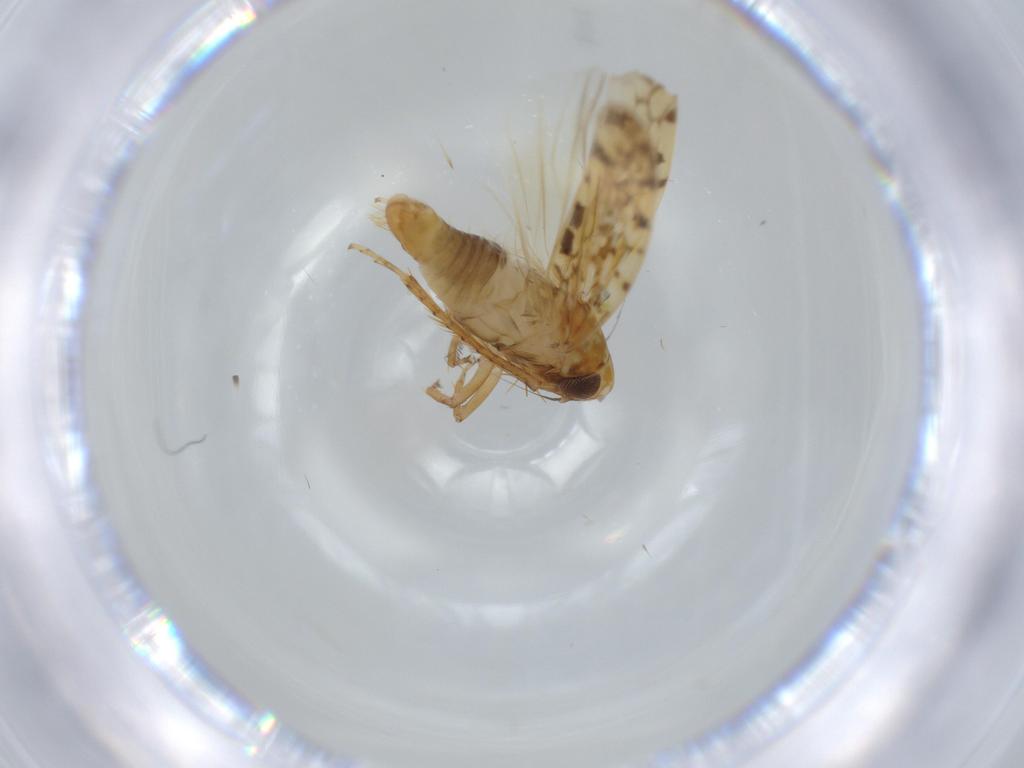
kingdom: Animalia
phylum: Arthropoda
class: Insecta
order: Hemiptera
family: Cicadellidae
